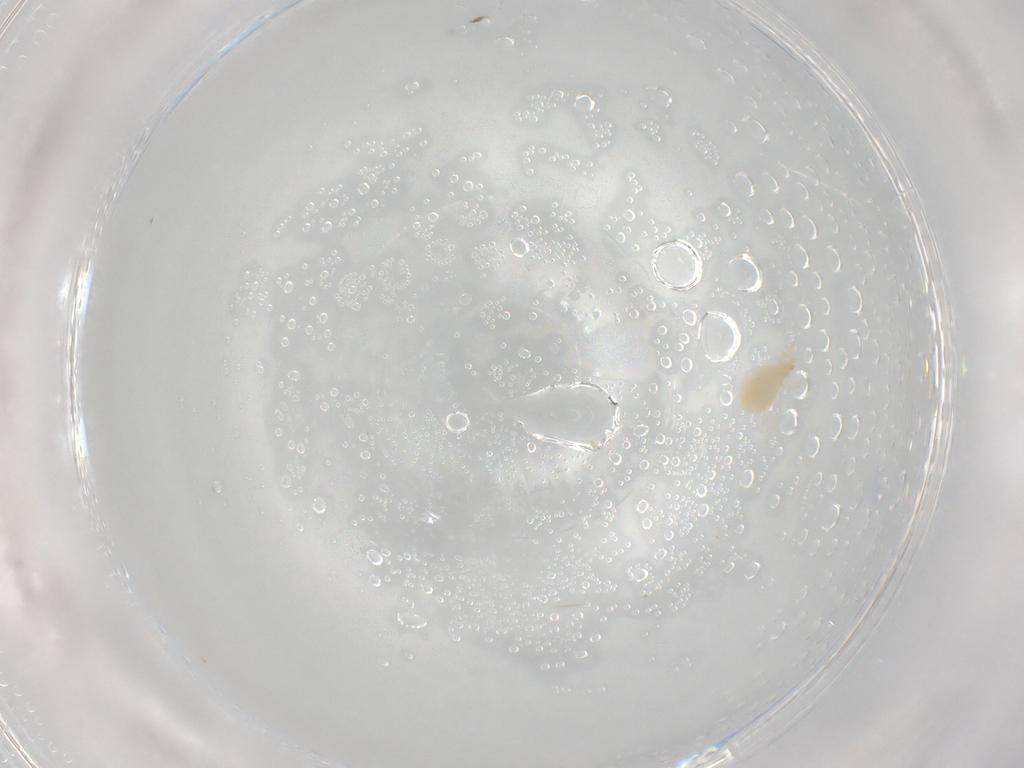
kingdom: Animalia
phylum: Arthropoda
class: Arachnida
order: Trombidiformes
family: Erythraeidae
